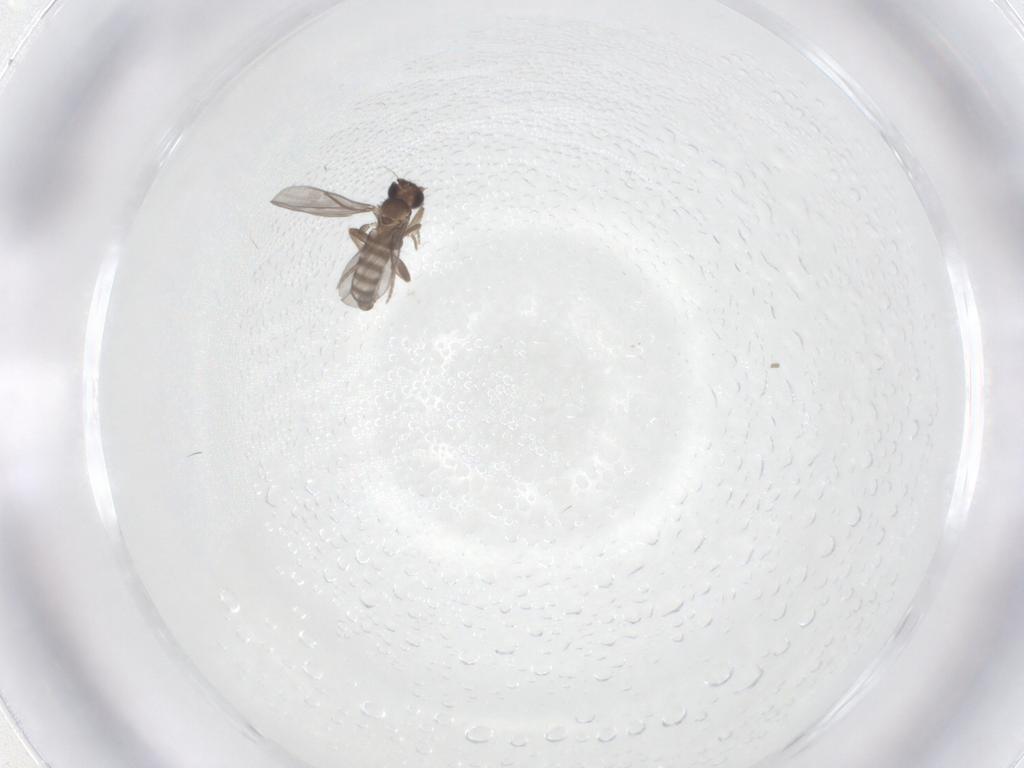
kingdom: Animalia
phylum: Arthropoda
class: Insecta
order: Diptera
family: Phoridae
